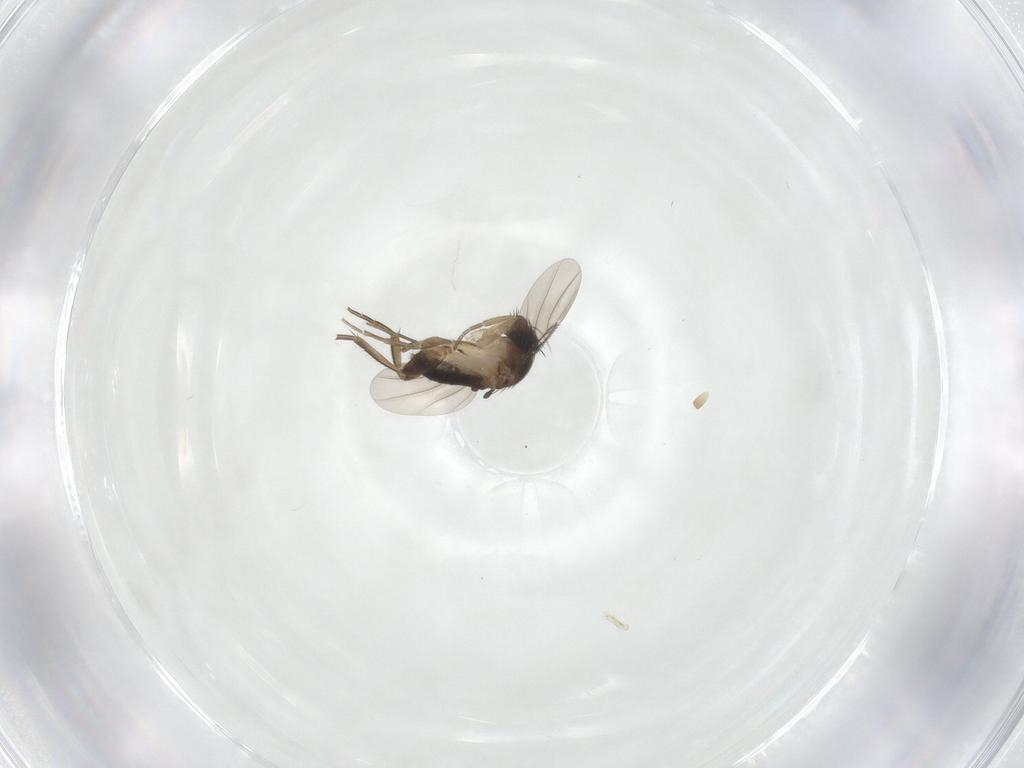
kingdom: Animalia
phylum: Arthropoda
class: Insecta
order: Diptera
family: Phoridae
